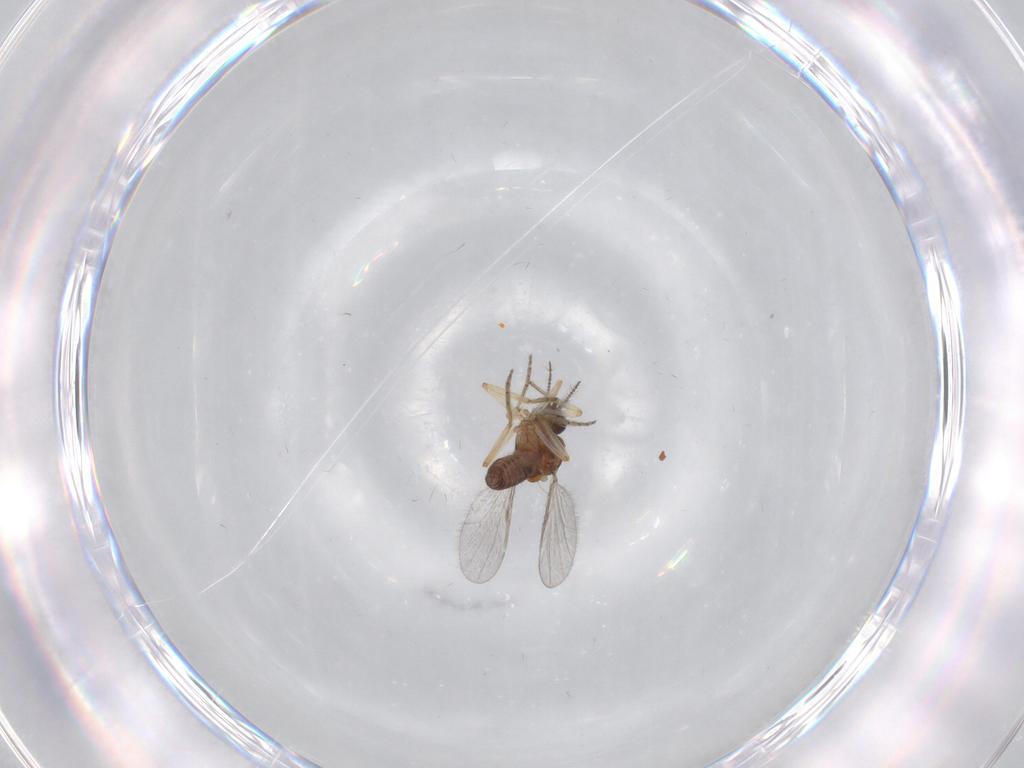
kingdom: Animalia
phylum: Arthropoda
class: Insecta
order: Diptera
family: Ceratopogonidae
